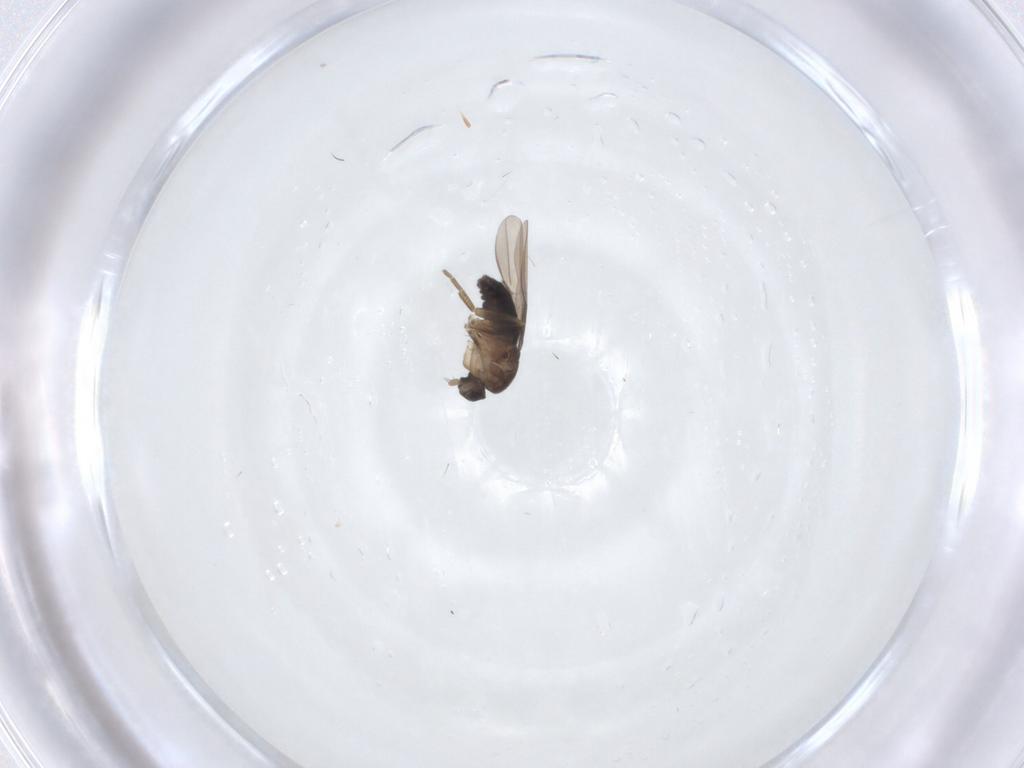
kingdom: Animalia
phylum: Arthropoda
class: Insecta
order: Diptera
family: Phoridae
